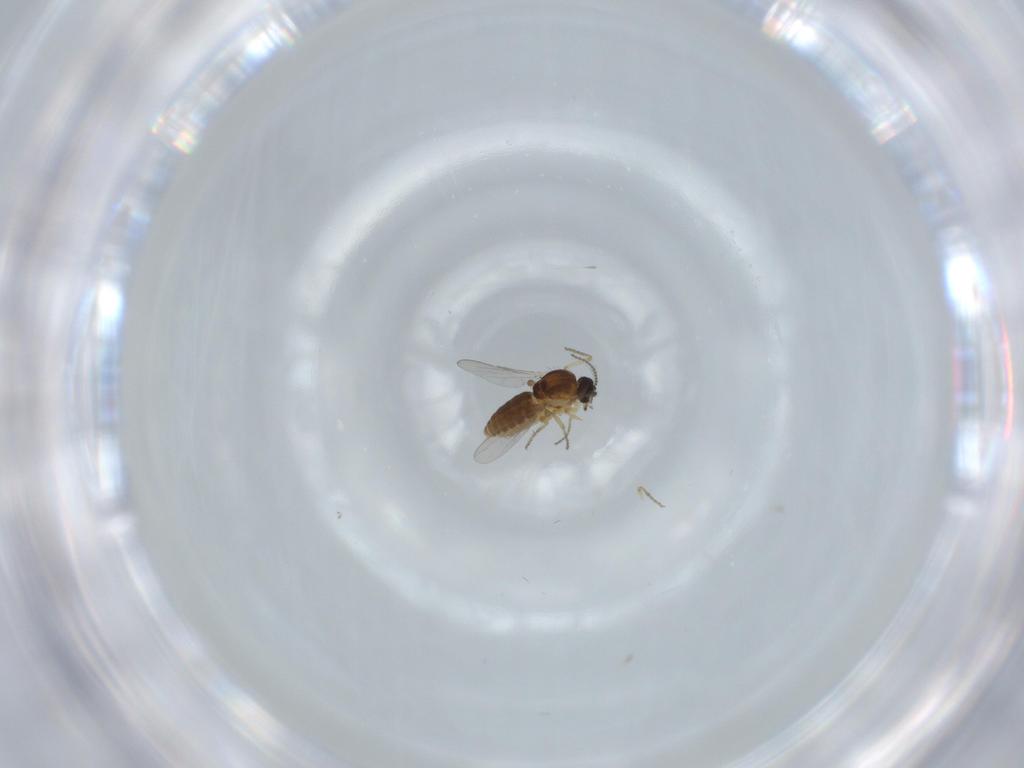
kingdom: Animalia
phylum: Arthropoda
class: Insecta
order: Diptera
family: Ceratopogonidae
